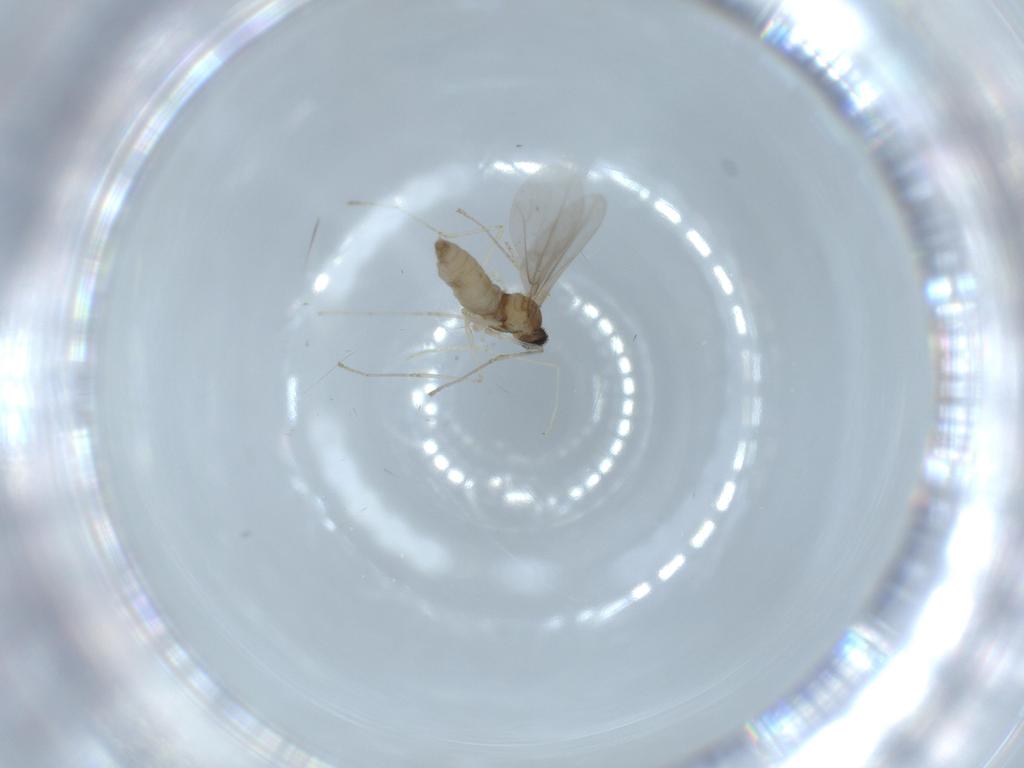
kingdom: Animalia
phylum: Arthropoda
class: Insecta
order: Diptera
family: Cecidomyiidae
